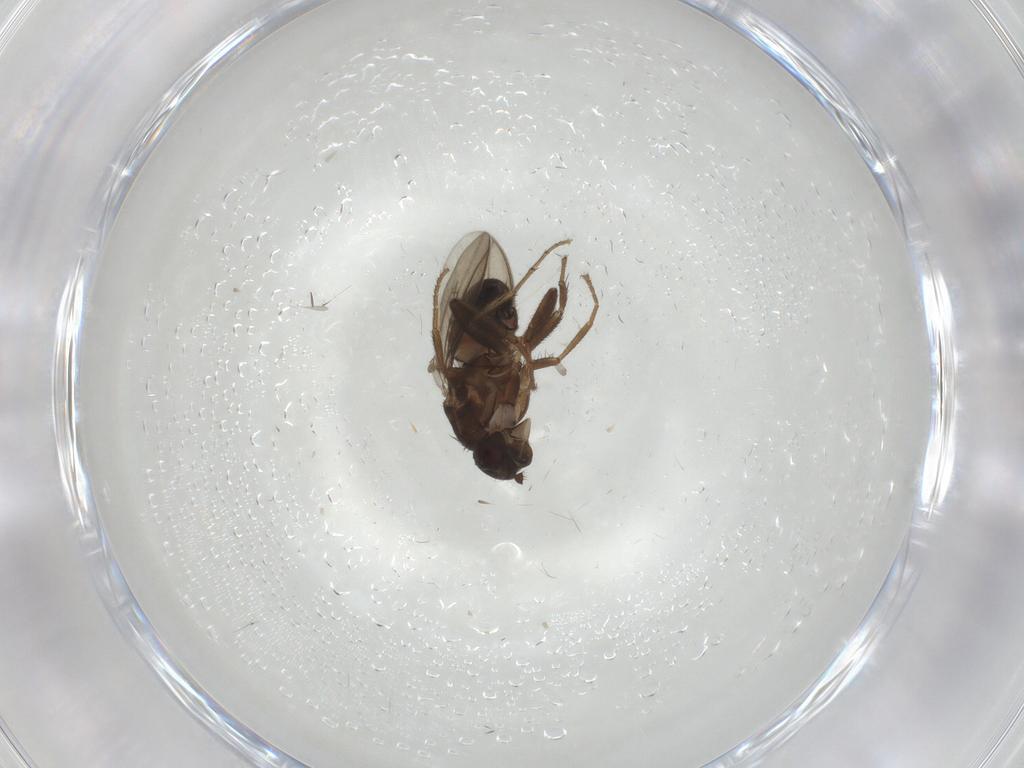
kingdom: Animalia
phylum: Arthropoda
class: Insecta
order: Diptera
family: Sphaeroceridae
